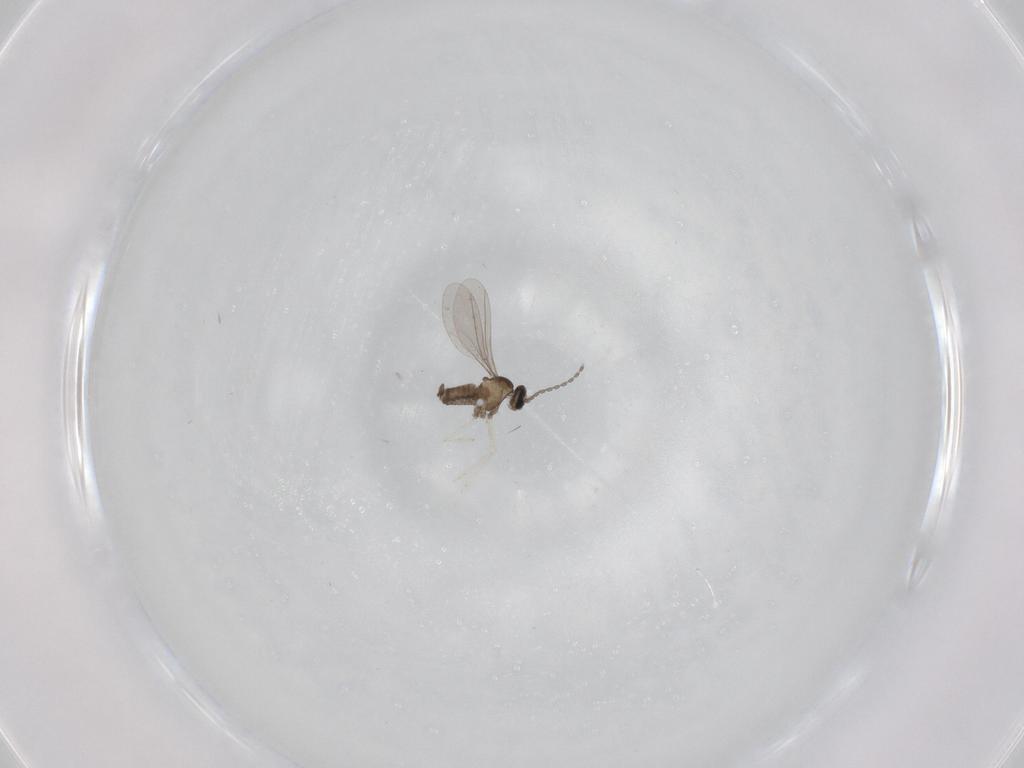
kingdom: Animalia
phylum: Arthropoda
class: Insecta
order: Diptera
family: Cecidomyiidae
